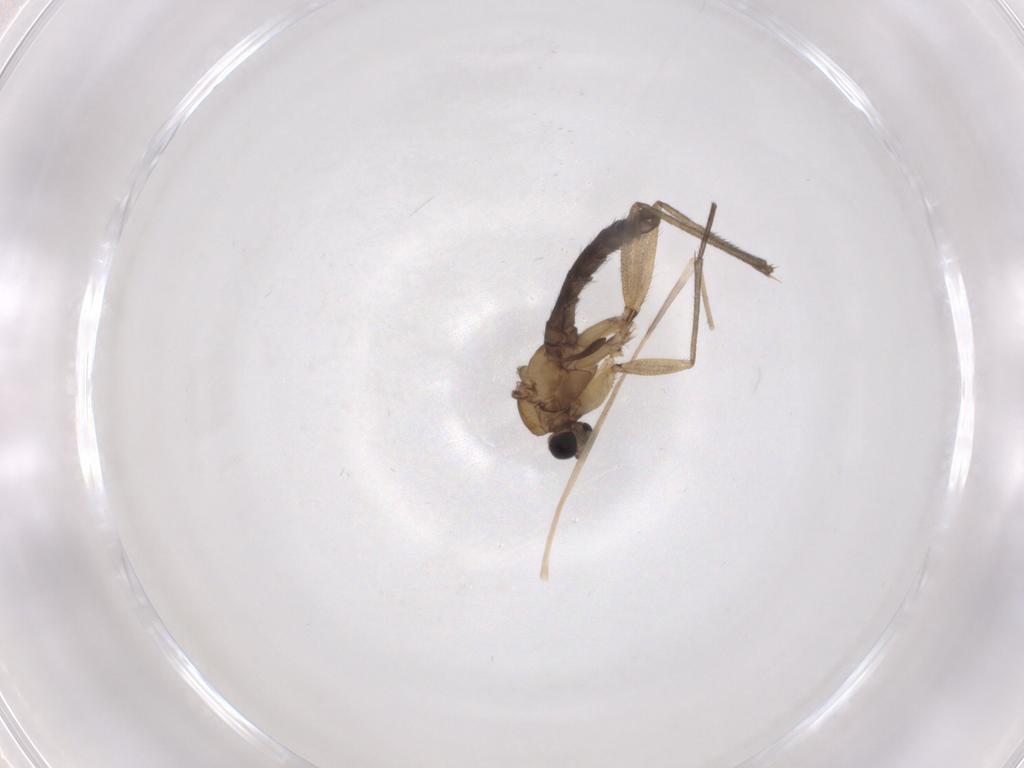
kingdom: Animalia
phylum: Arthropoda
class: Insecta
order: Diptera
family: Sciaridae
